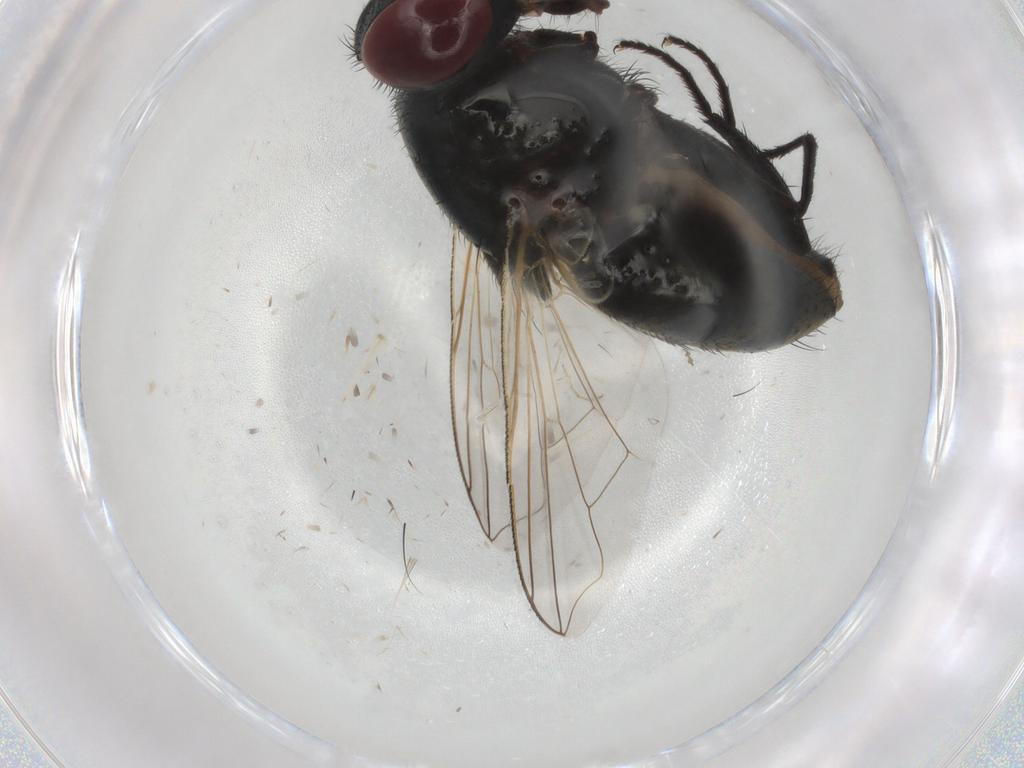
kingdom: Animalia
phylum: Arthropoda
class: Insecta
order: Diptera
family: Muscidae
